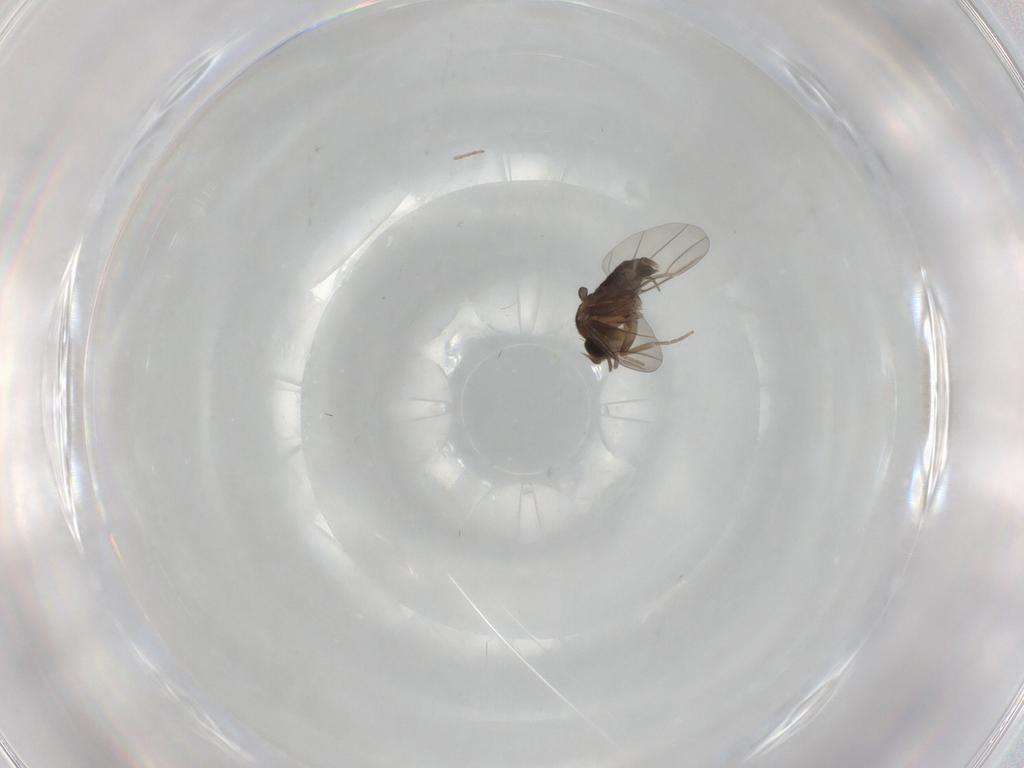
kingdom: Animalia
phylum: Arthropoda
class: Insecta
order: Diptera
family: Phoridae
